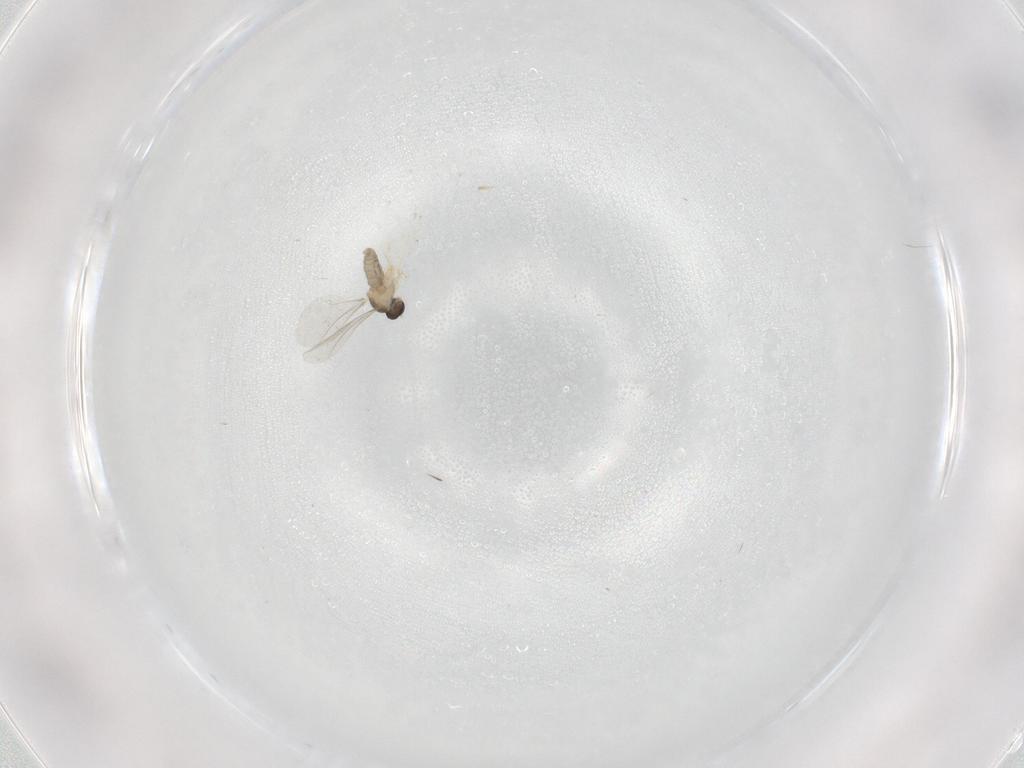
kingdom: Animalia
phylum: Arthropoda
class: Insecta
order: Diptera
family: Cecidomyiidae
